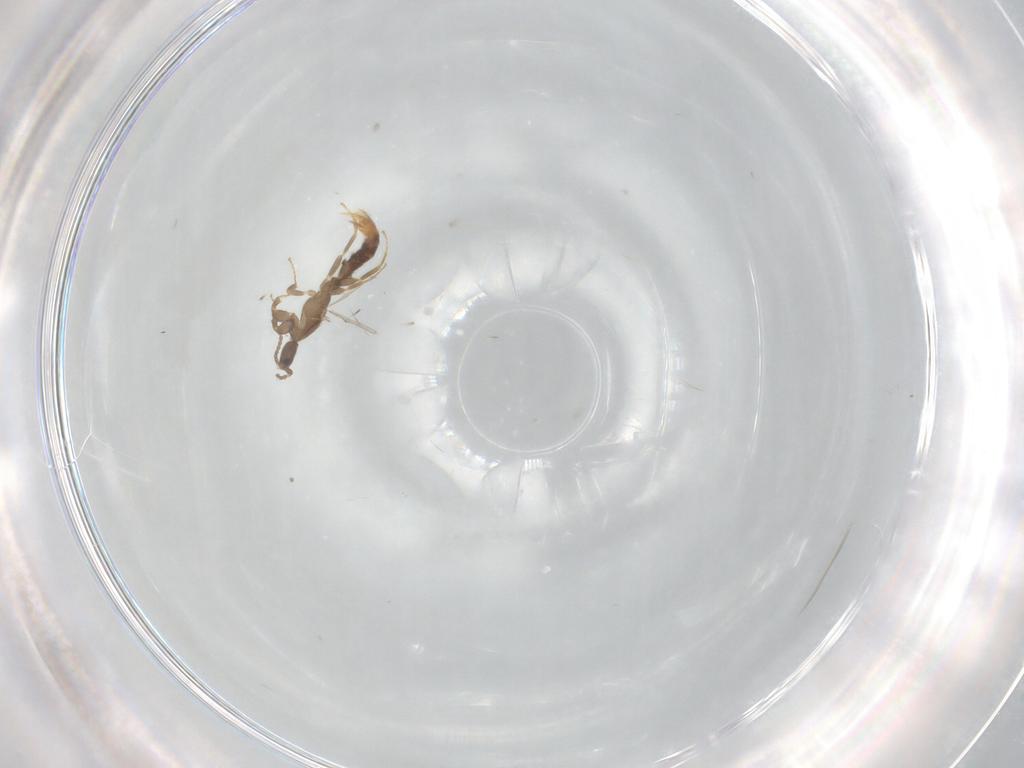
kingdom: Animalia
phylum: Arthropoda
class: Insecta
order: Hymenoptera
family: Formicidae
